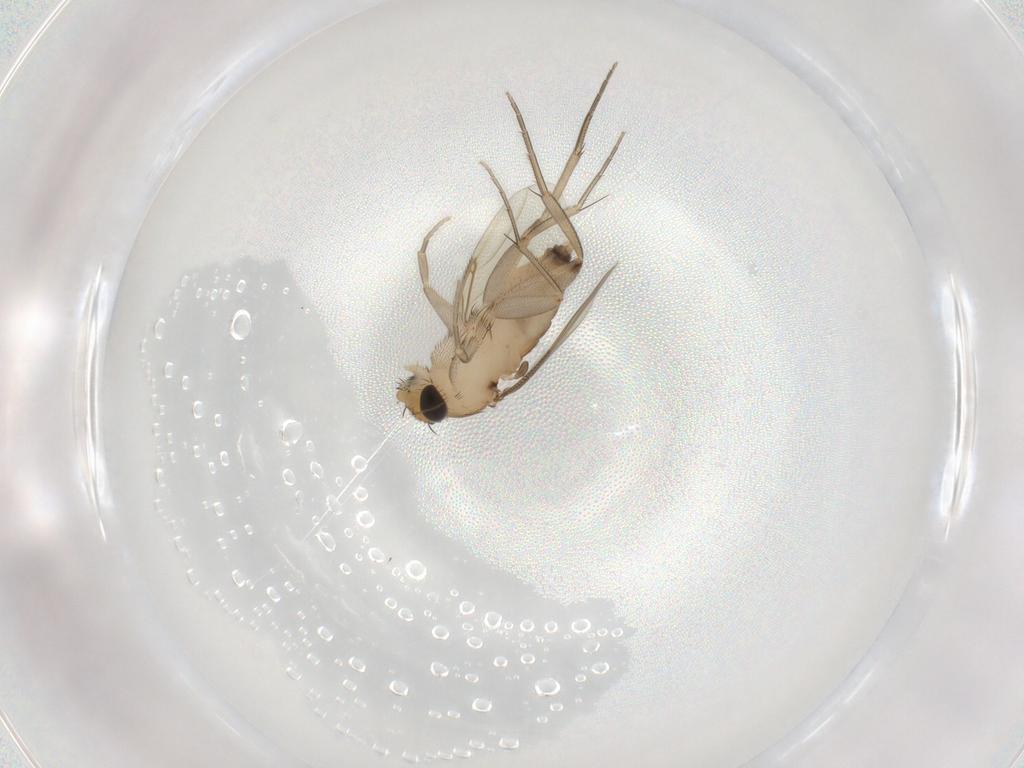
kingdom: Animalia
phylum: Arthropoda
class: Insecta
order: Diptera
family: Phoridae
